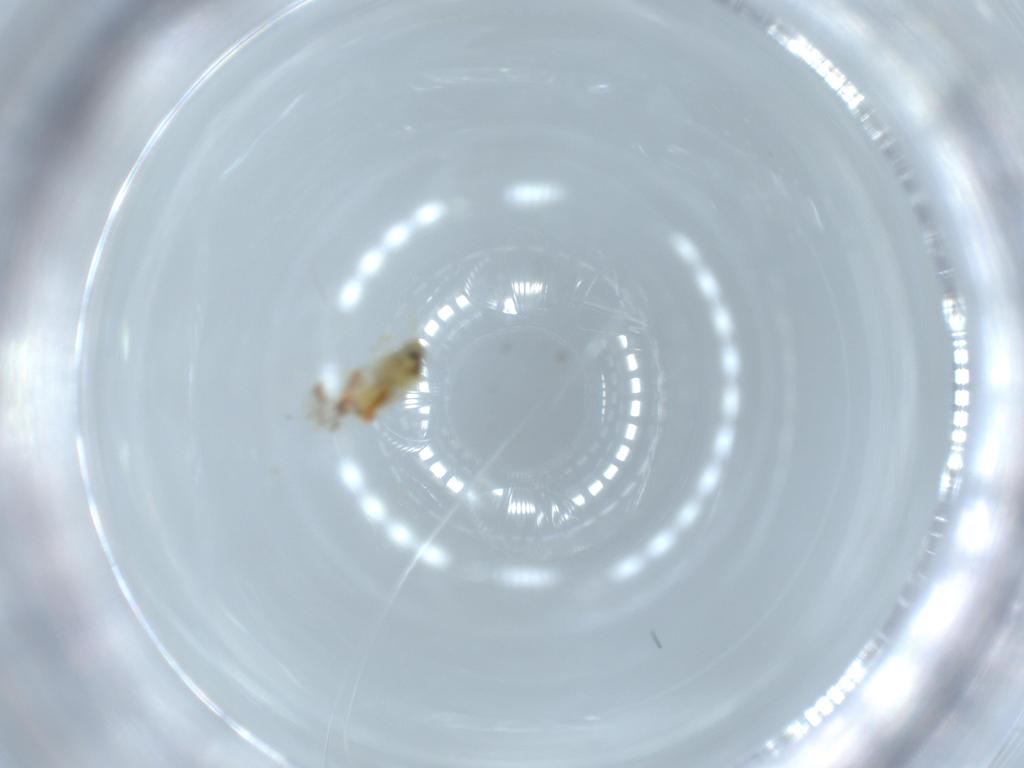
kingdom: Animalia
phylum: Arthropoda
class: Insecta
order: Hemiptera
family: Aleyrodidae
